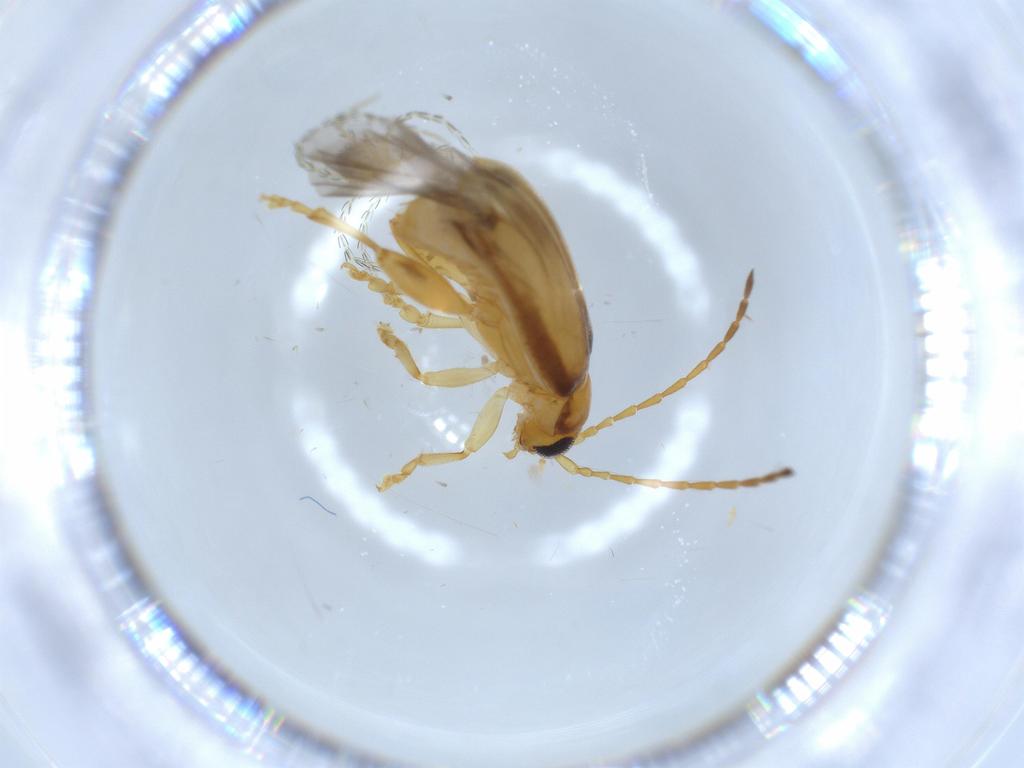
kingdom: Animalia
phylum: Arthropoda
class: Insecta
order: Coleoptera
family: Chrysomelidae
